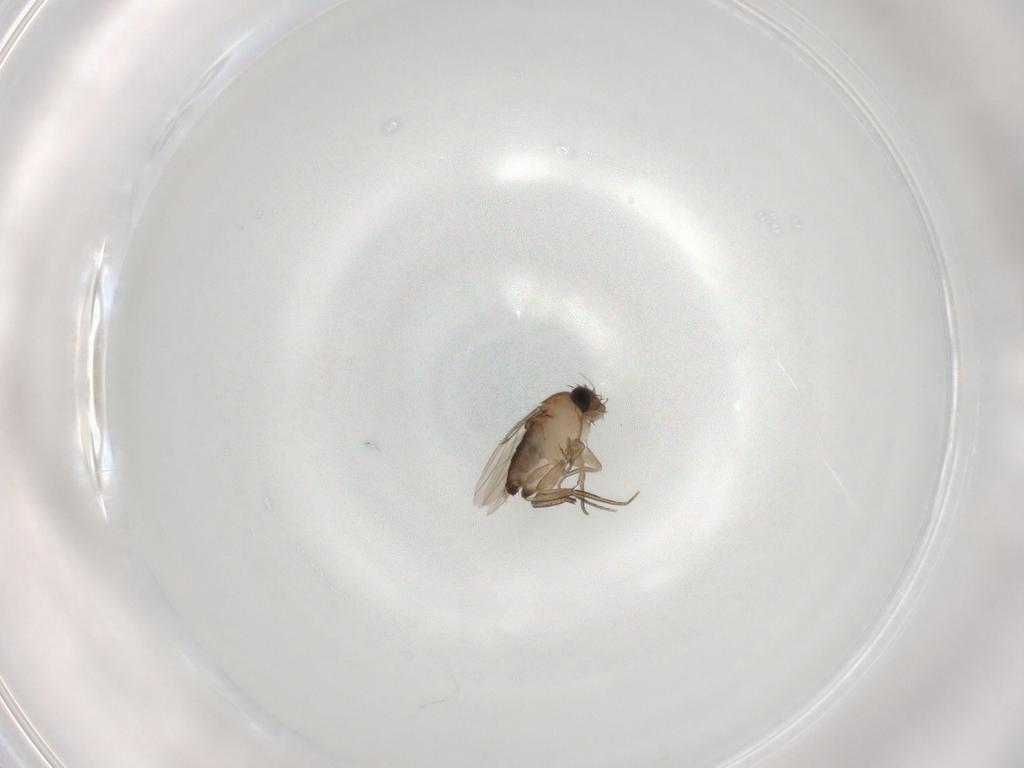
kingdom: Animalia
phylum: Arthropoda
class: Insecta
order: Diptera
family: Phoridae
